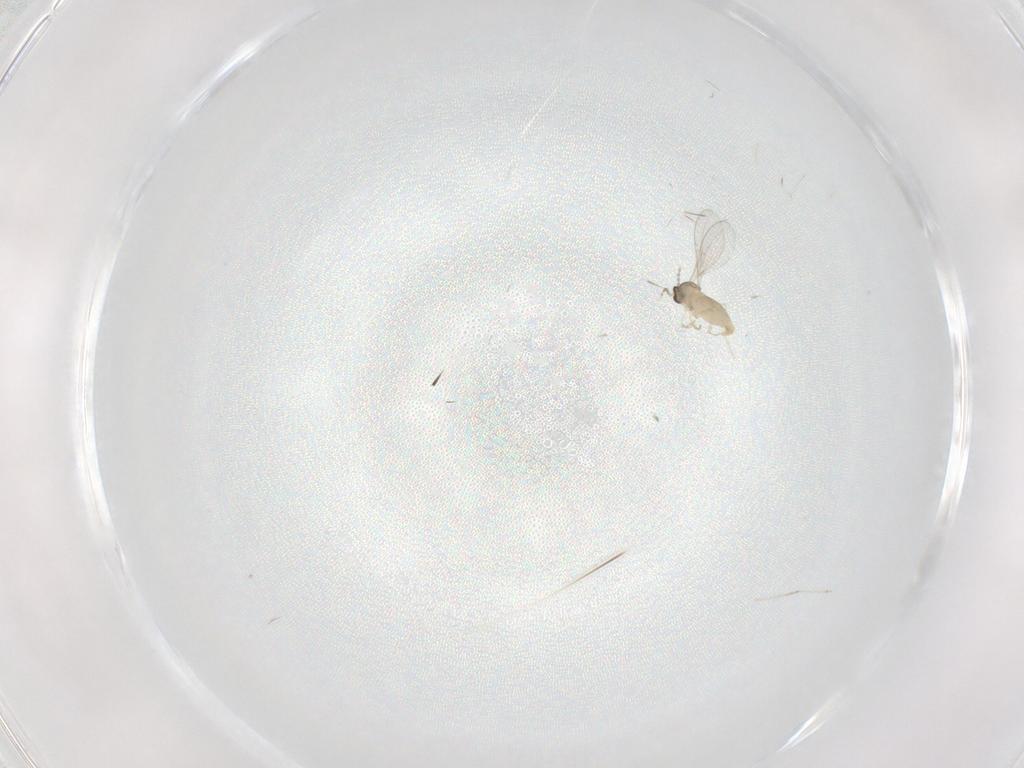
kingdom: Animalia
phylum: Arthropoda
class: Insecta
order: Diptera
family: Cecidomyiidae
